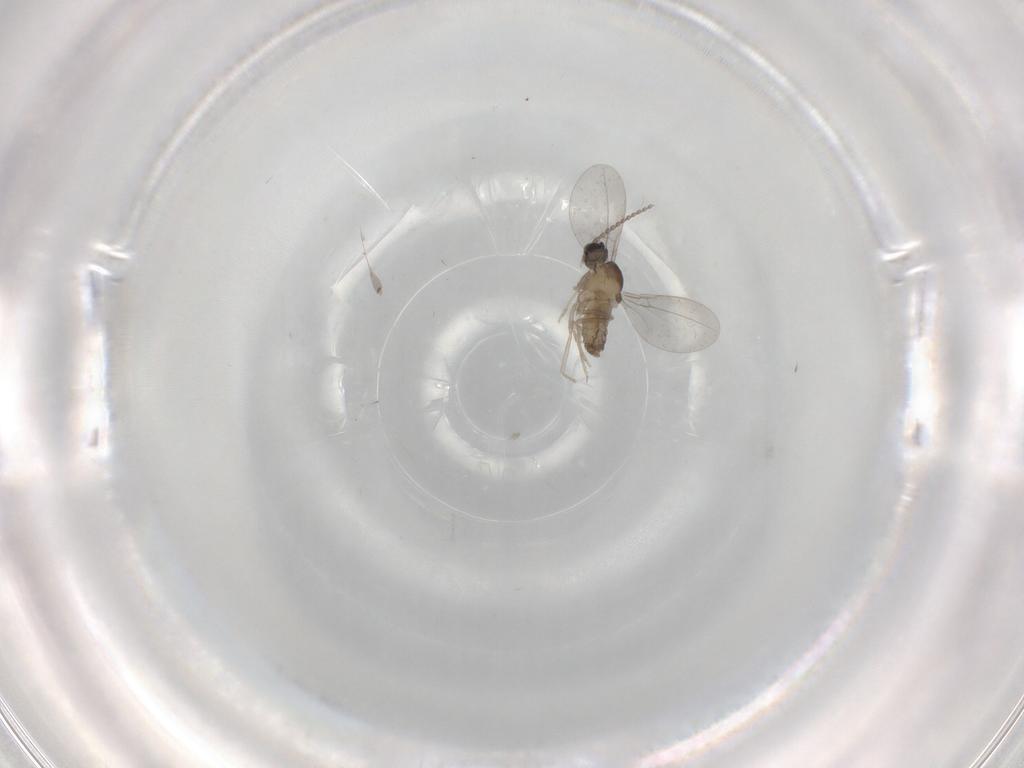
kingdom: Animalia
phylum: Arthropoda
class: Insecta
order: Diptera
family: Cecidomyiidae
